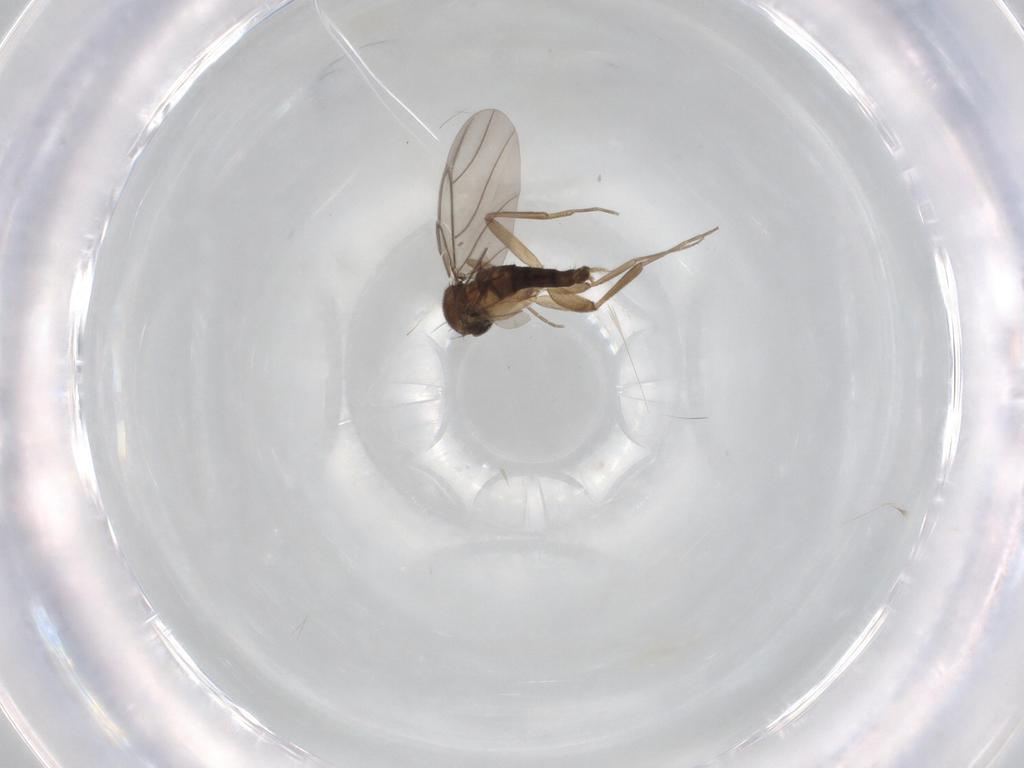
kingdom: Animalia
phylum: Arthropoda
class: Insecta
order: Diptera
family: Phoridae
